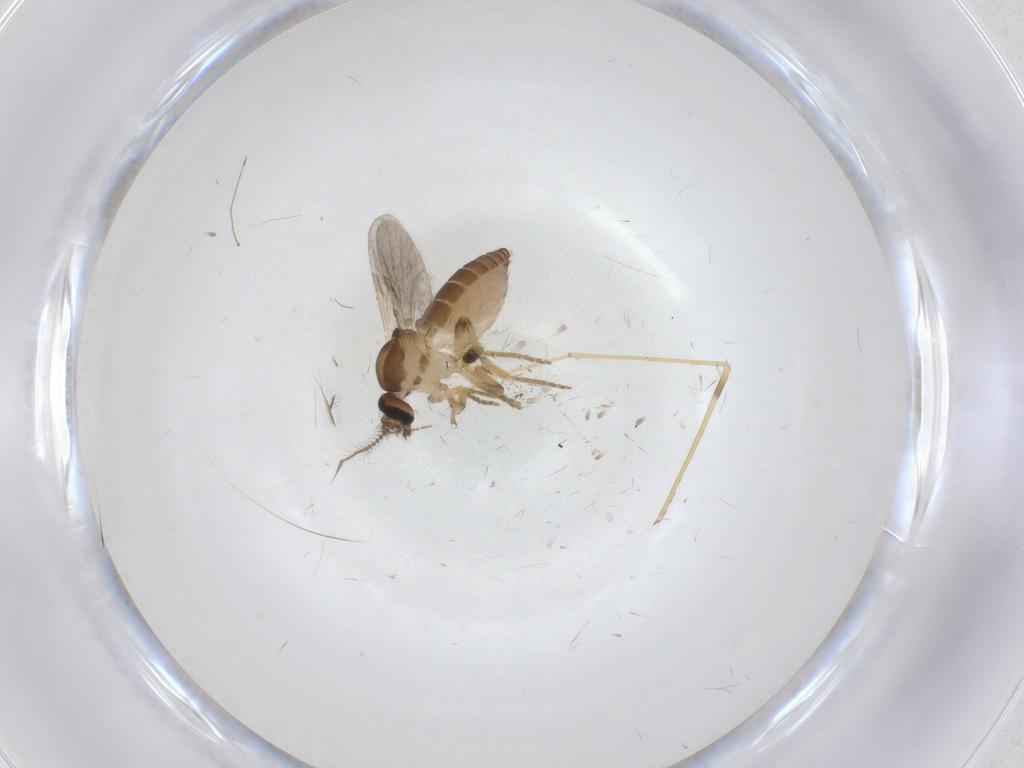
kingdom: Animalia
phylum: Arthropoda
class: Insecta
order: Diptera
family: Limoniidae
